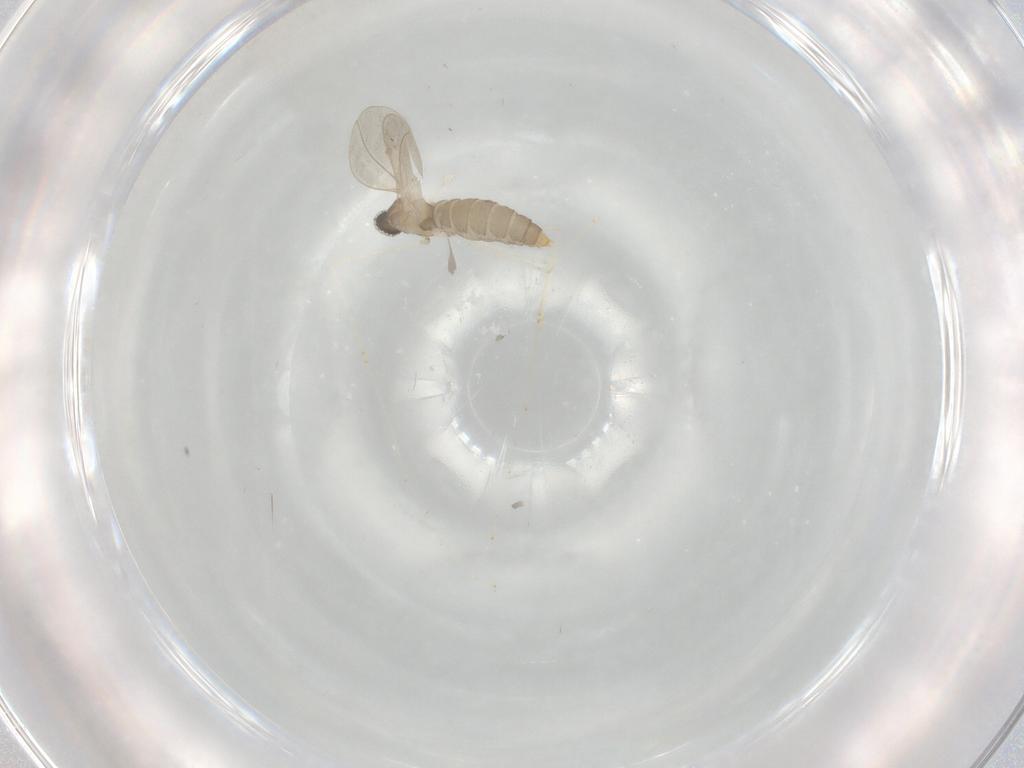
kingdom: Animalia
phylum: Arthropoda
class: Insecta
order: Diptera
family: Cecidomyiidae
